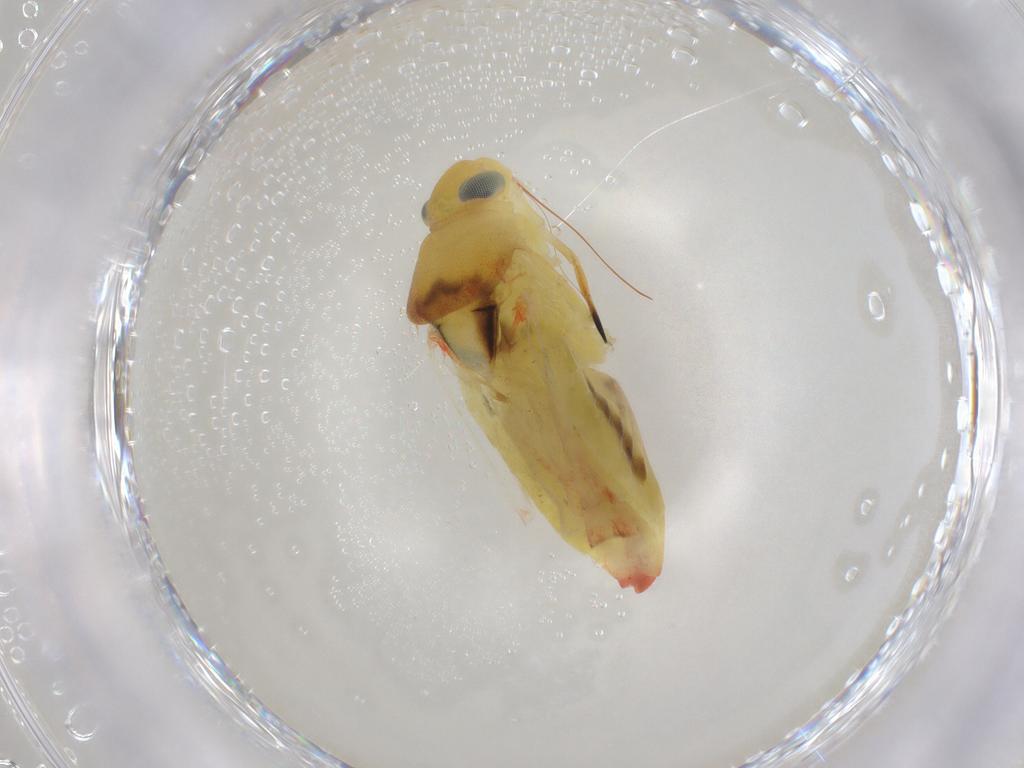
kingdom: Animalia
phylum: Arthropoda
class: Insecta
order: Hemiptera
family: Miridae
